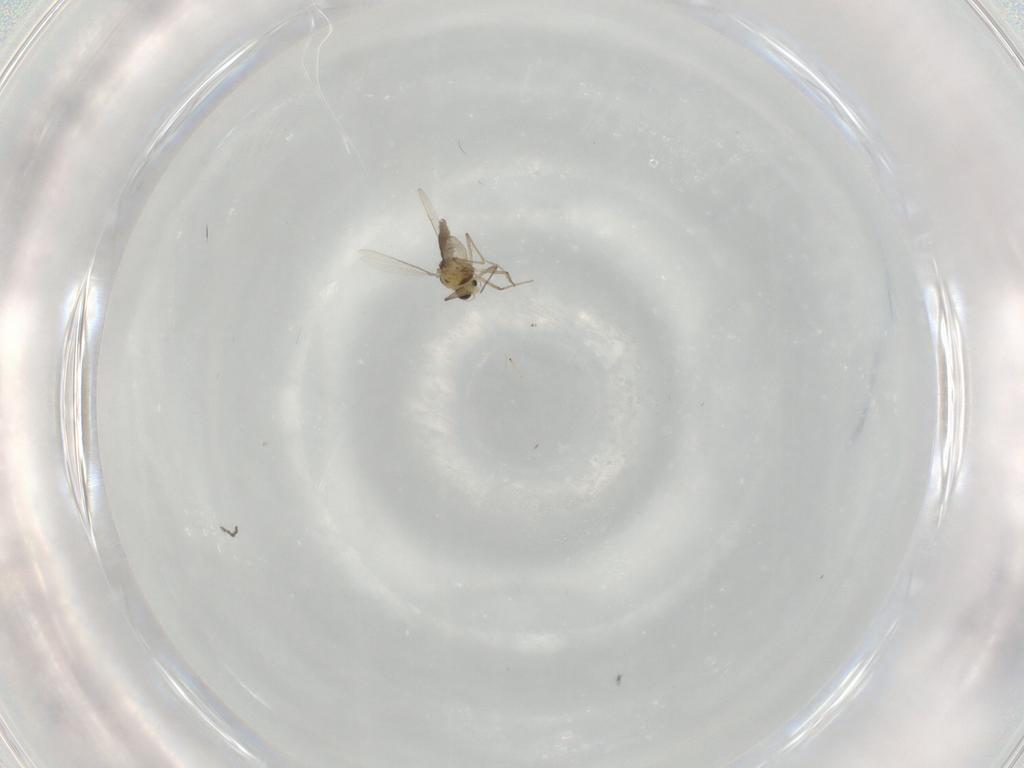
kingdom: Animalia
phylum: Arthropoda
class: Insecta
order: Diptera
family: Chironomidae
